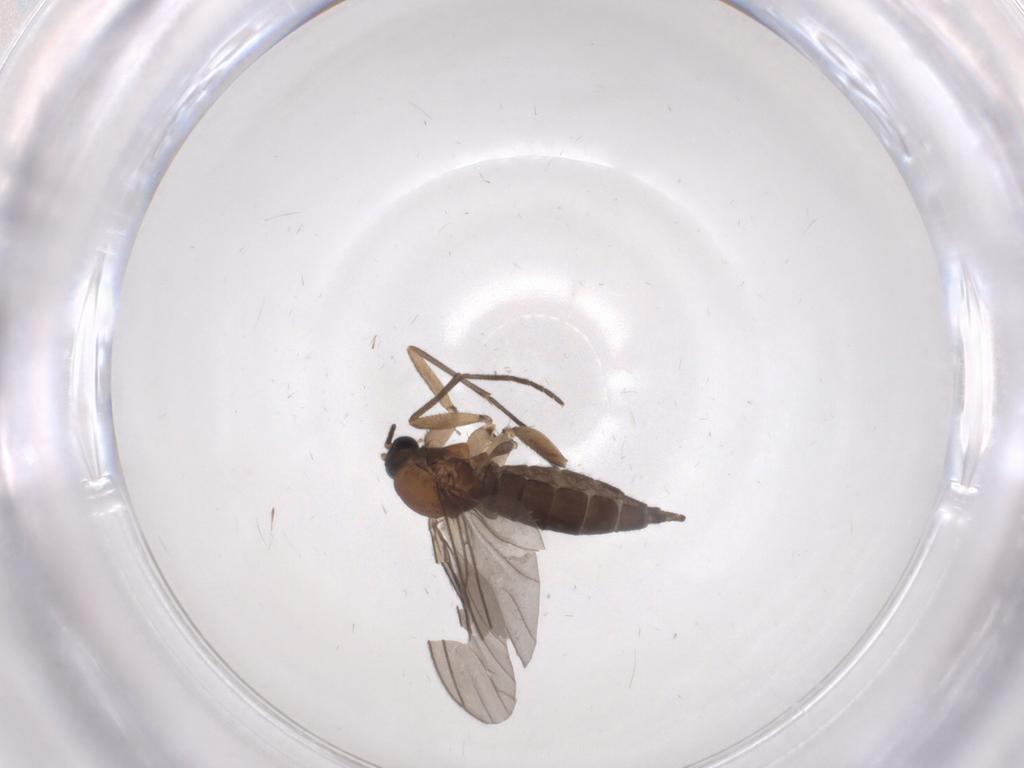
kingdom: Animalia
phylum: Arthropoda
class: Insecta
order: Diptera
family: Sciaridae
